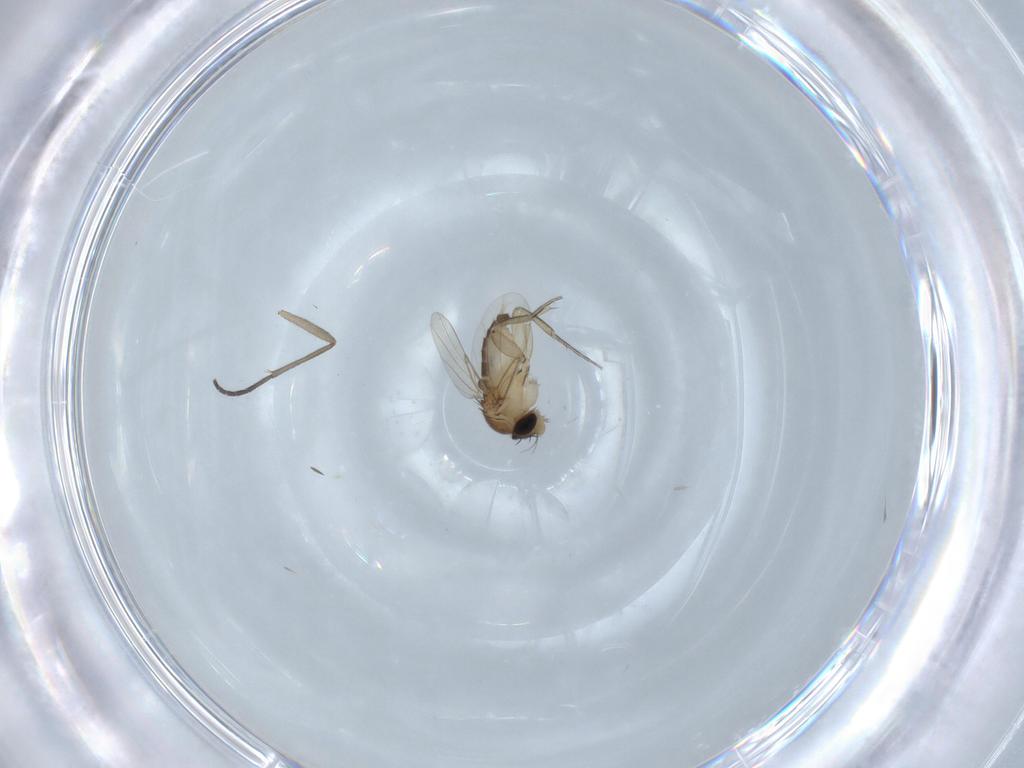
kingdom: Animalia
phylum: Arthropoda
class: Insecta
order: Diptera
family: Phoridae
